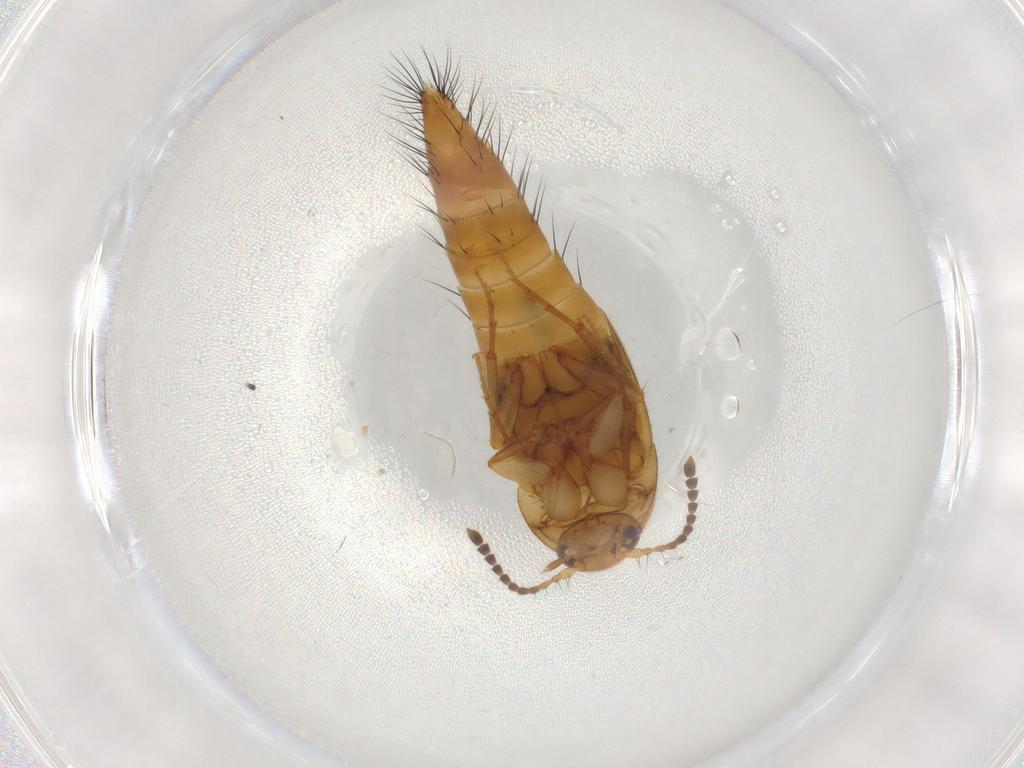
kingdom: Animalia
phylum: Arthropoda
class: Insecta
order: Coleoptera
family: Staphylinidae
